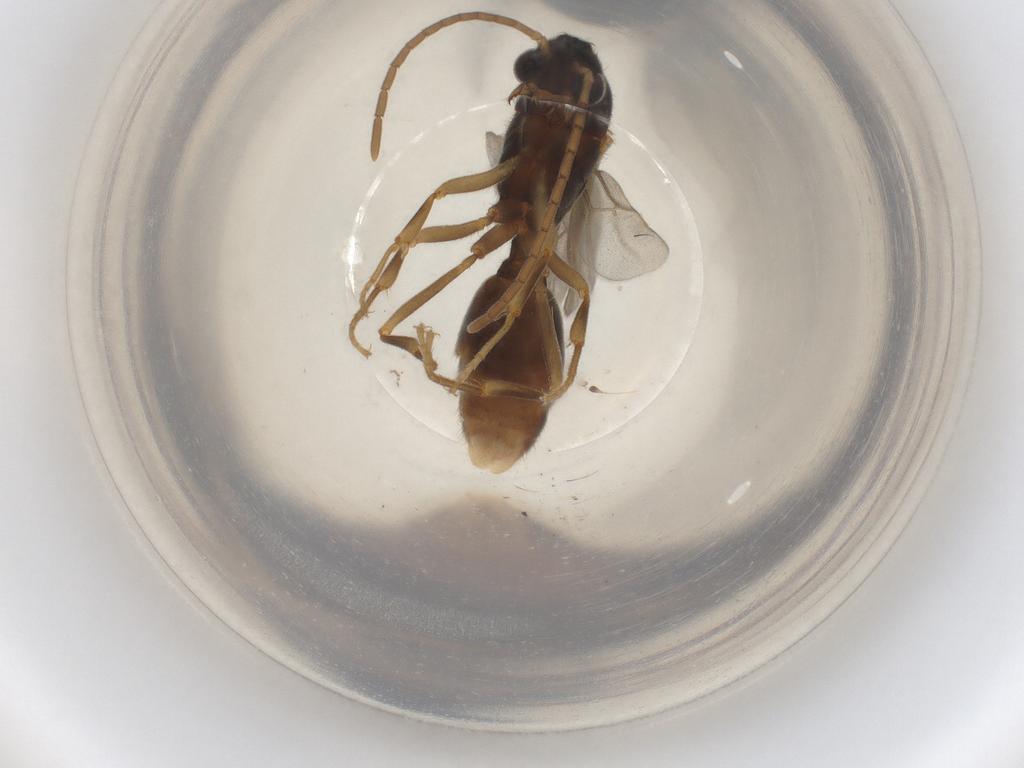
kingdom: Animalia
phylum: Arthropoda
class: Insecta
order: Hymenoptera
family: Formicidae
